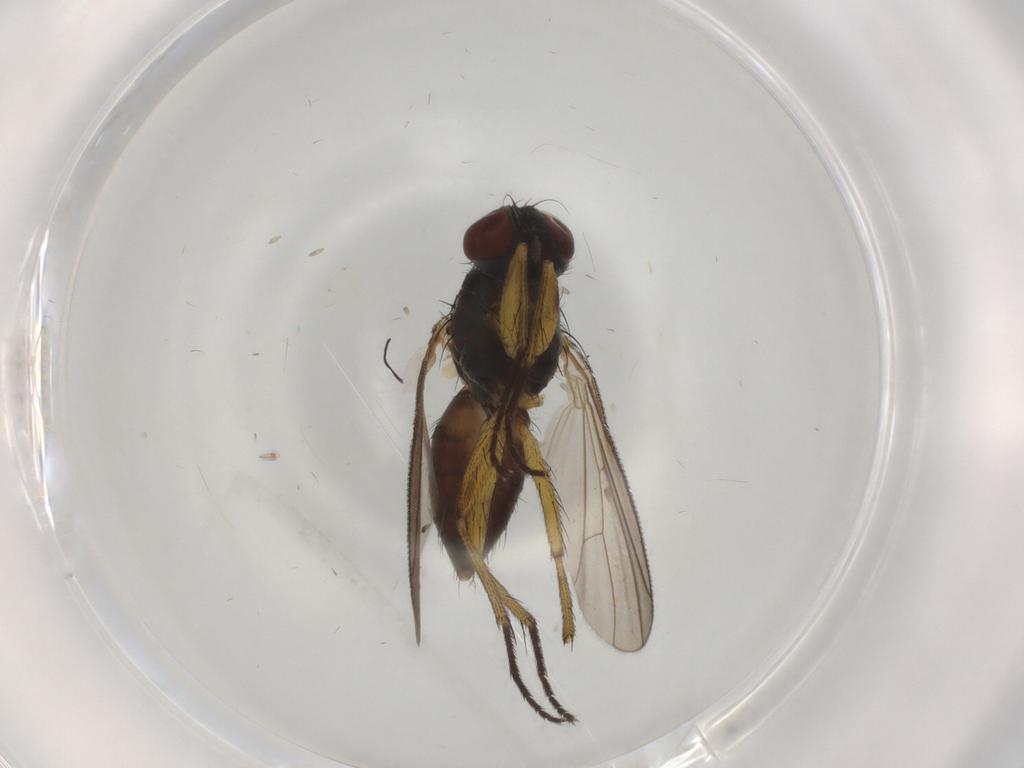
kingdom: Animalia
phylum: Arthropoda
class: Insecta
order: Diptera
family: Muscidae
